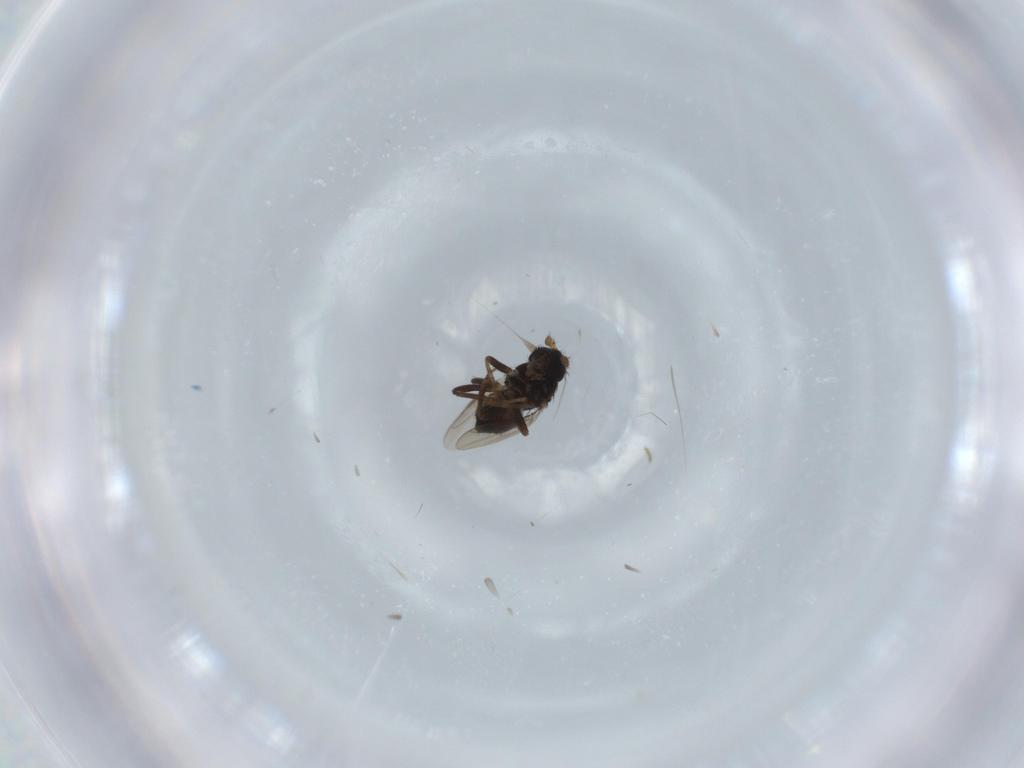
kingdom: Animalia
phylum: Arthropoda
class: Insecta
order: Diptera
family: Sphaeroceridae
